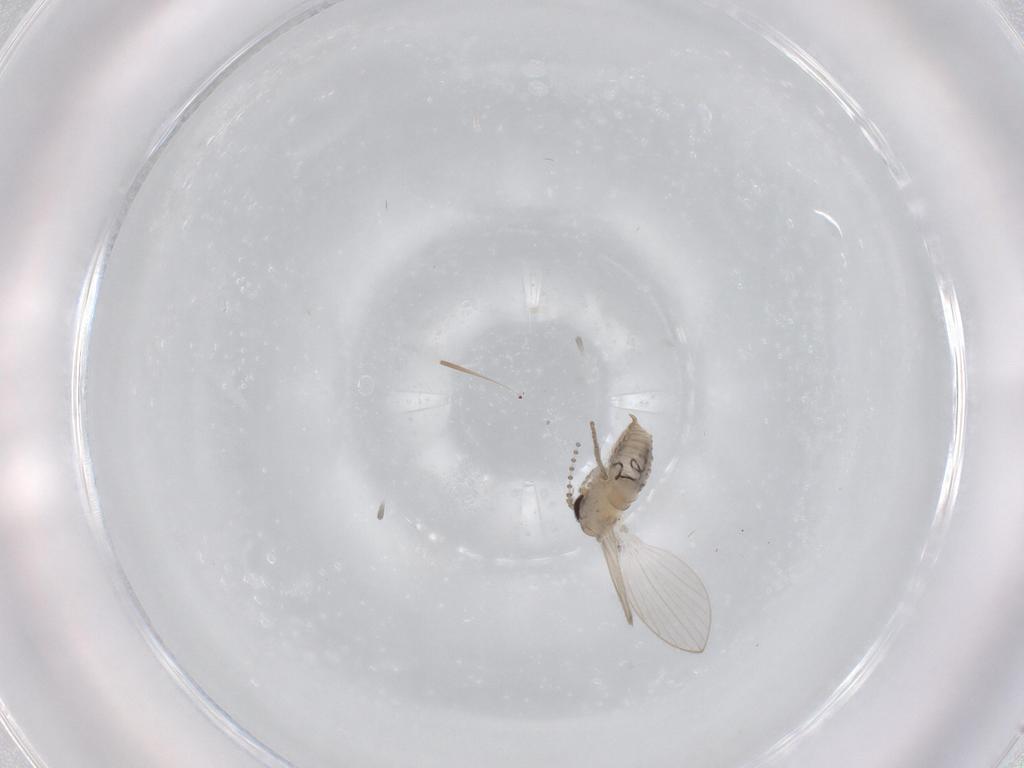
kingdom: Animalia
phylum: Arthropoda
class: Insecta
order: Diptera
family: Psychodidae
